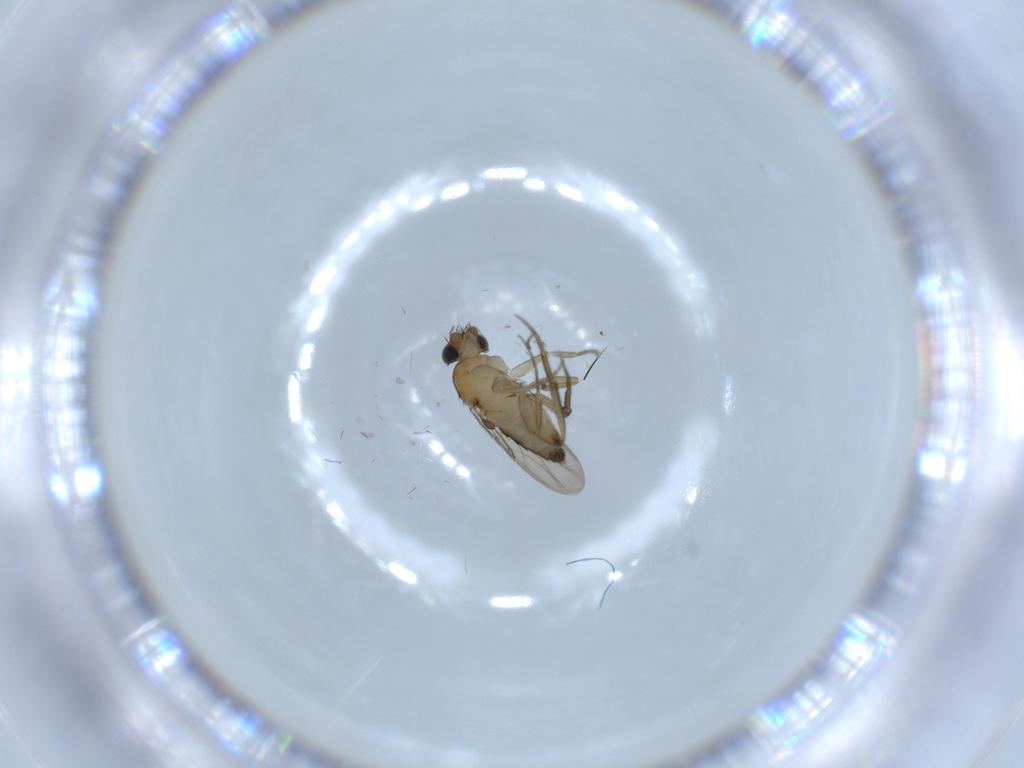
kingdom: Animalia
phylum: Arthropoda
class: Insecta
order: Diptera
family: Phoridae
